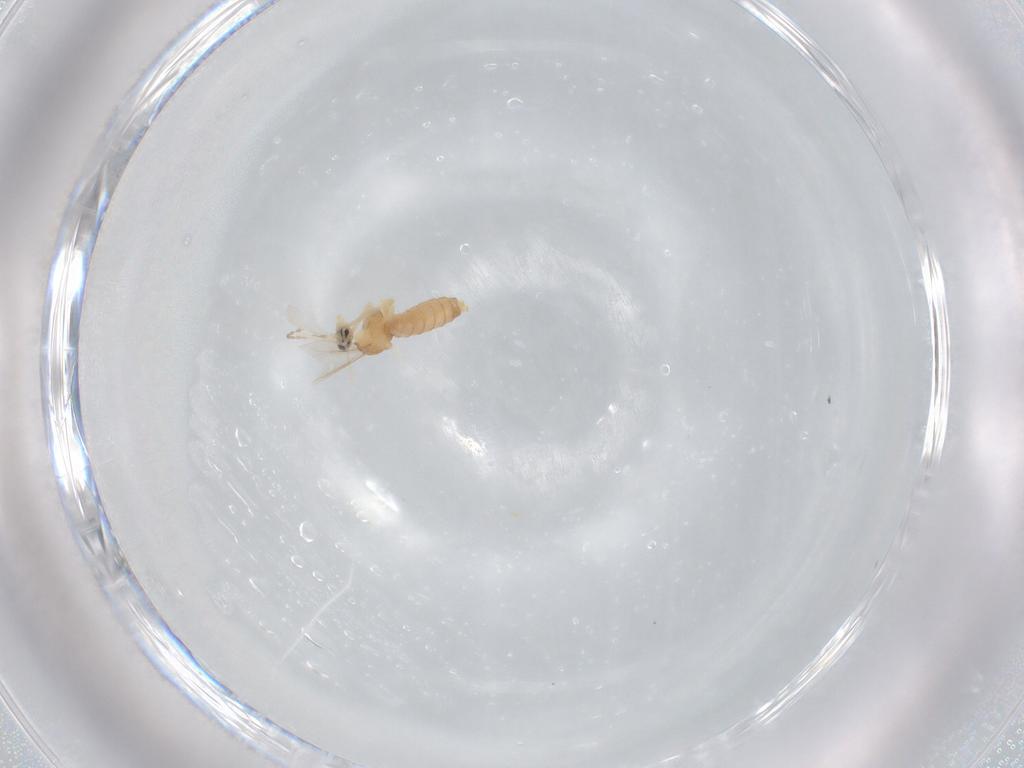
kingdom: Animalia
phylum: Arthropoda
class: Insecta
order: Diptera
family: Cecidomyiidae
